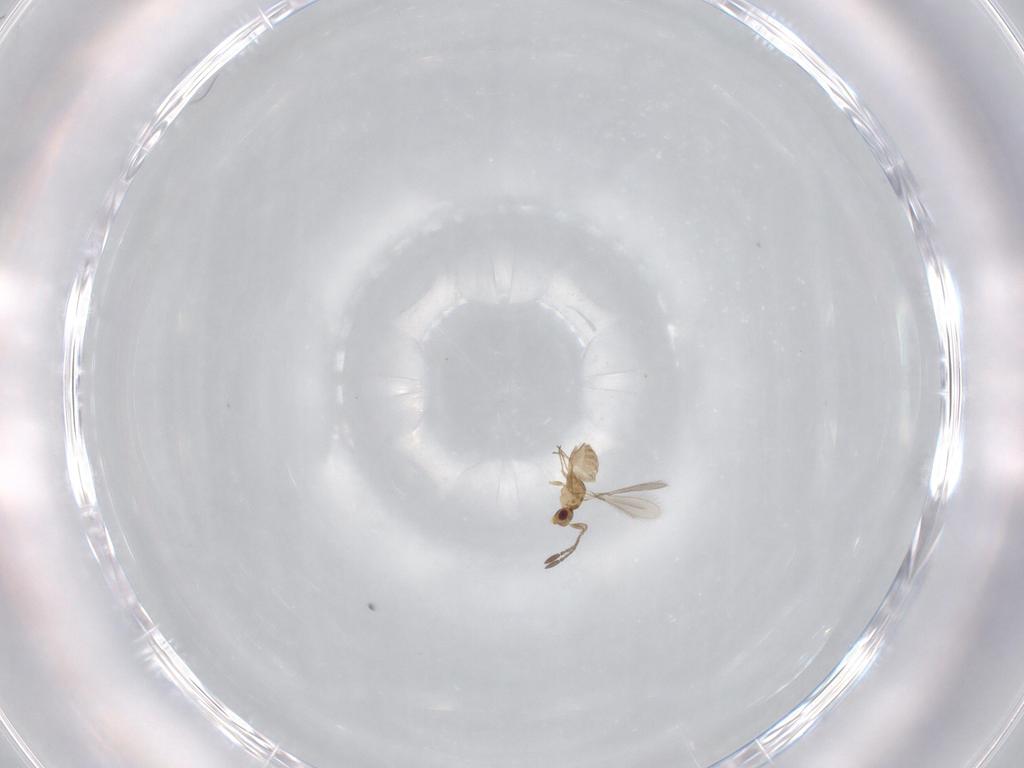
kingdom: Animalia
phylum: Arthropoda
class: Insecta
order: Hymenoptera
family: Mymaridae
